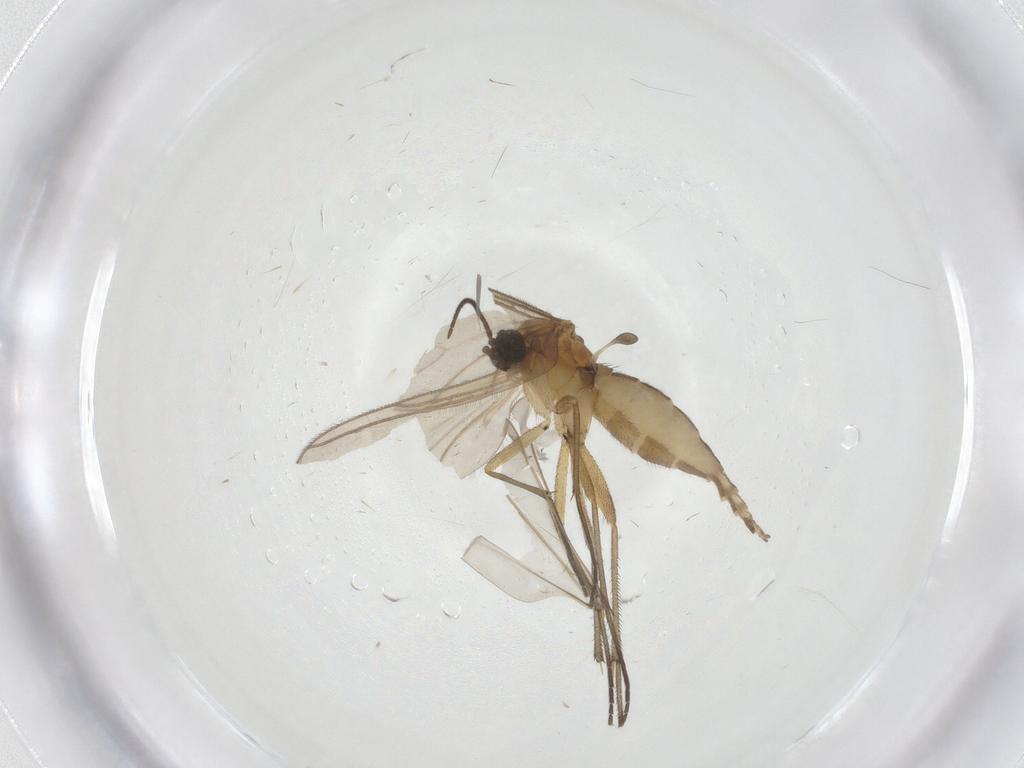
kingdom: Animalia
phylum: Arthropoda
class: Insecta
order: Diptera
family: Cecidomyiidae
